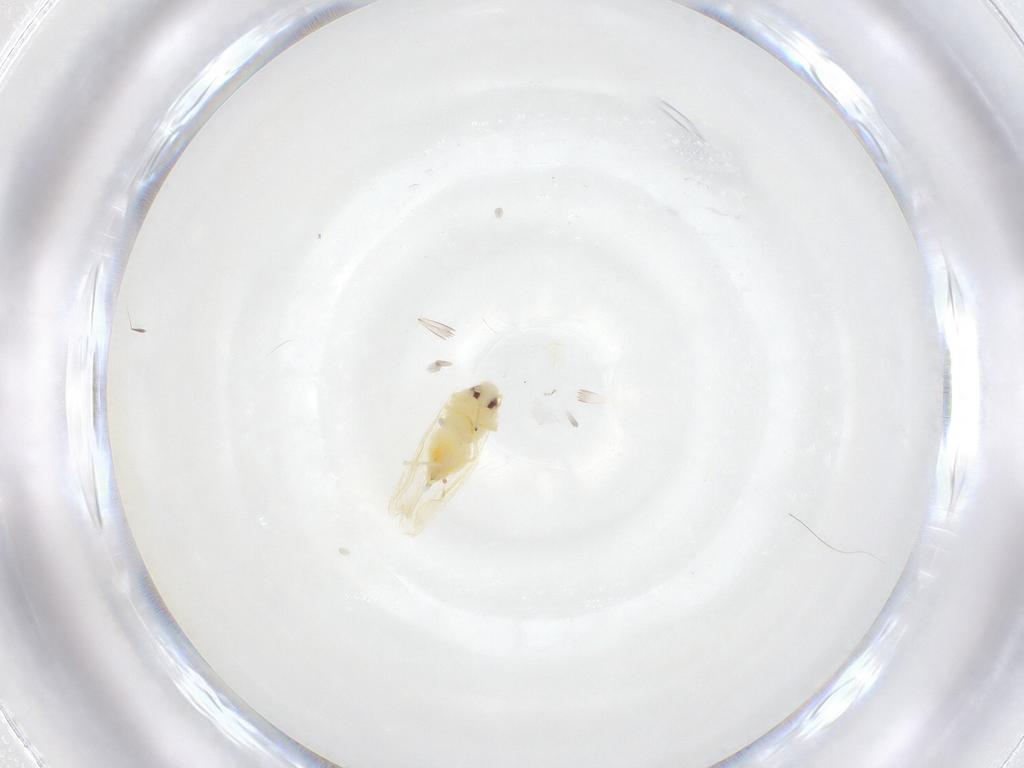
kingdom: Animalia
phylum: Arthropoda
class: Insecta
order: Hemiptera
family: Aleyrodidae
